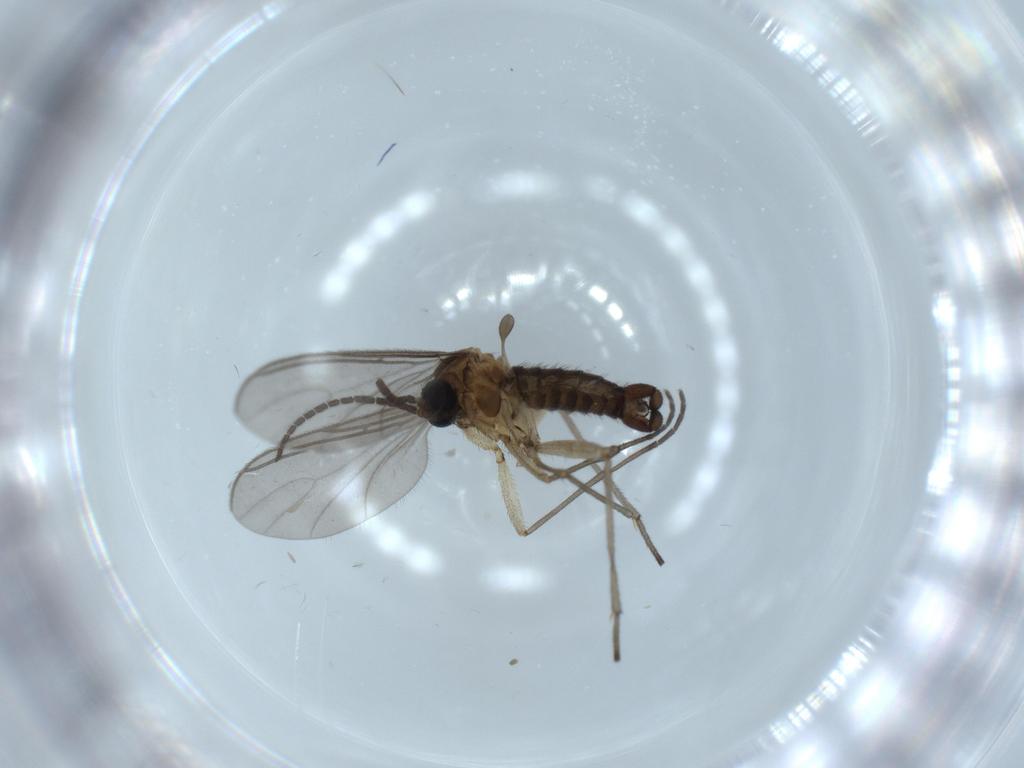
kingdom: Animalia
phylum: Arthropoda
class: Insecta
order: Diptera
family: Sciaridae
